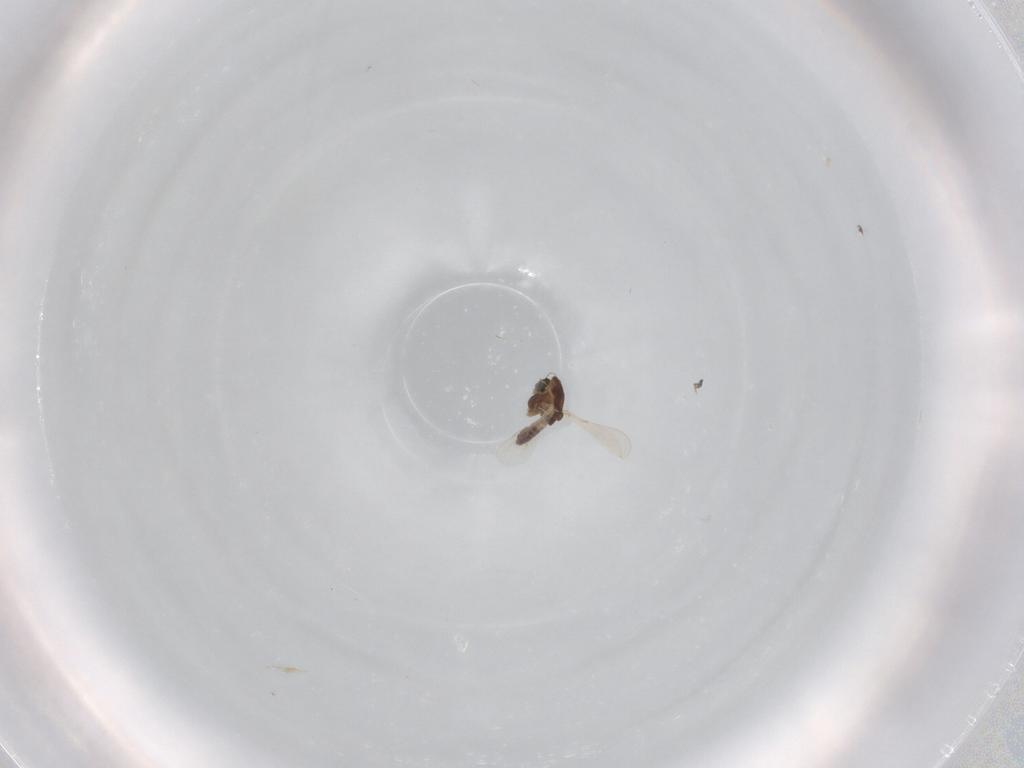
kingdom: Animalia
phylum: Arthropoda
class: Insecta
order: Diptera
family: Chironomidae
